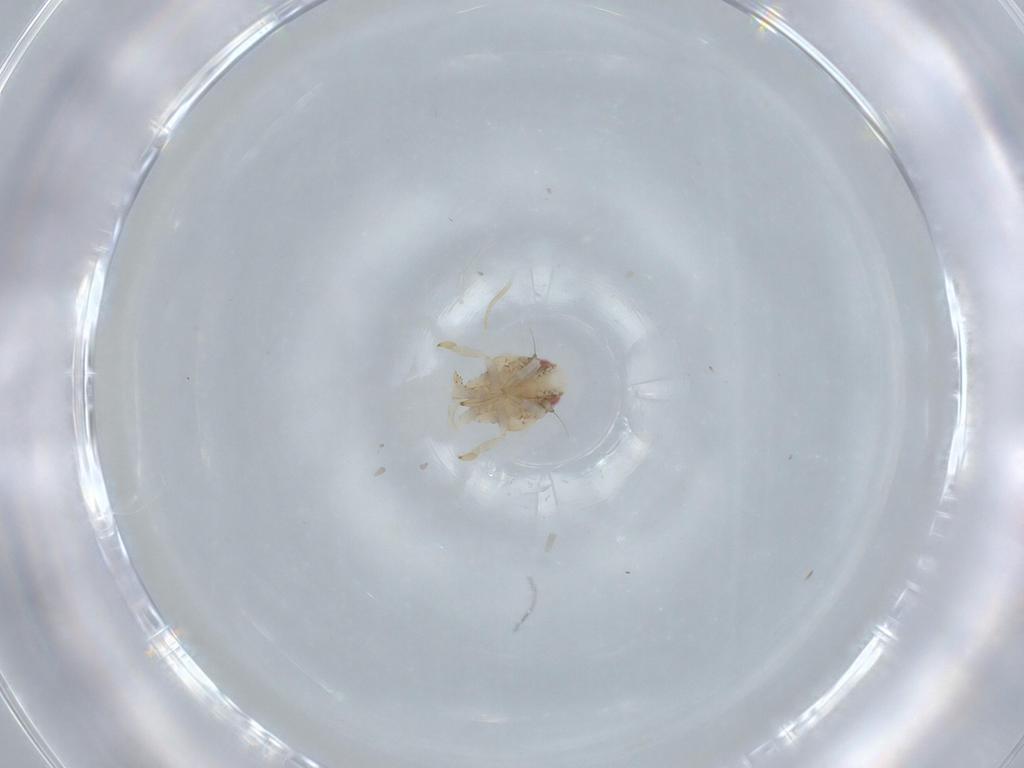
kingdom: Animalia
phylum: Arthropoda
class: Insecta
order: Hemiptera
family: Acanaloniidae
